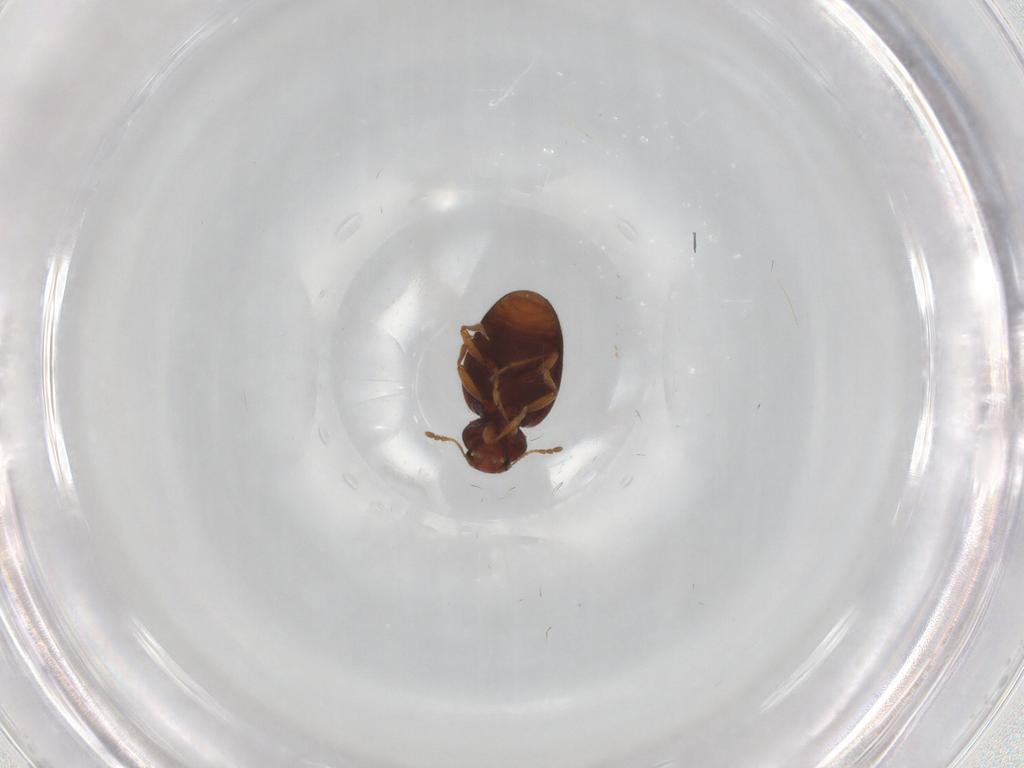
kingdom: Animalia
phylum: Arthropoda
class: Insecta
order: Coleoptera
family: Latridiidae
